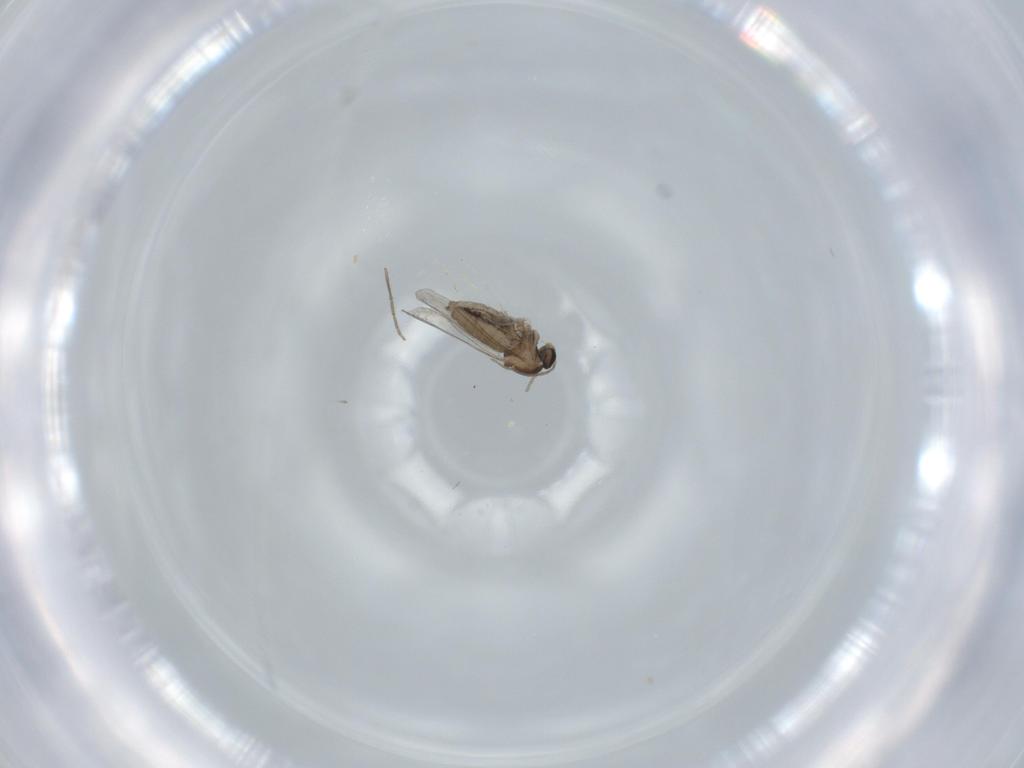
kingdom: Animalia
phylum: Arthropoda
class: Insecta
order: Diptera
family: Cecidomyiidae
